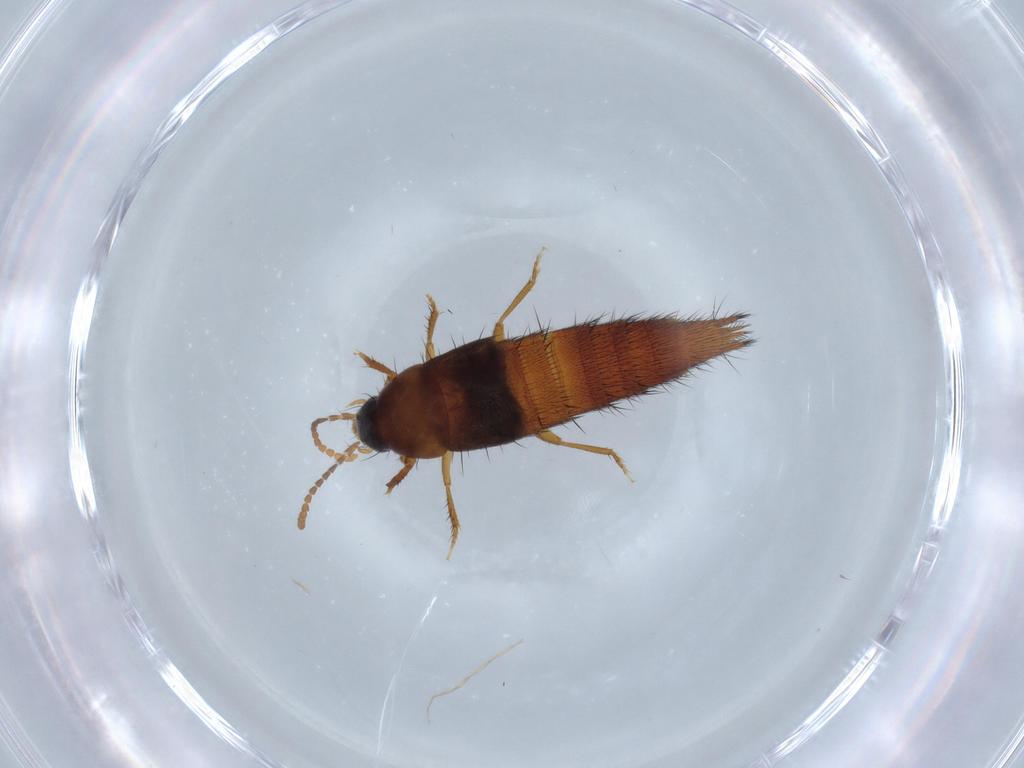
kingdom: Animalia
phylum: Arthropoda
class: Insecta
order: Coleoptera
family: Staphylinidae
